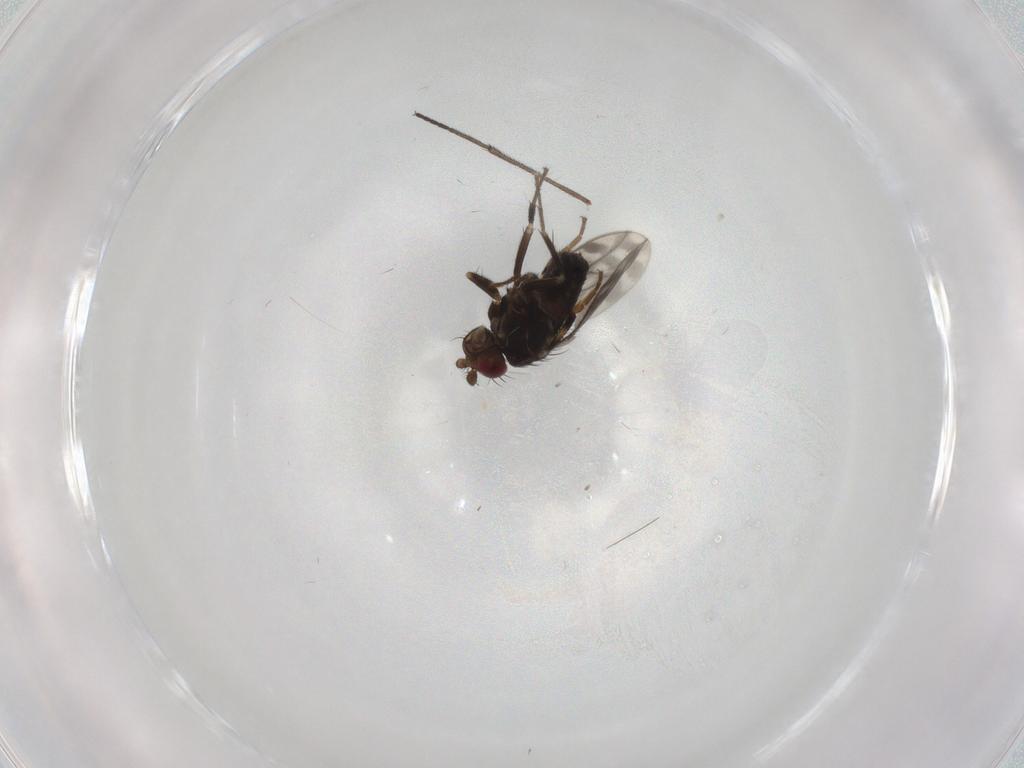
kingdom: Animalia
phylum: Arthropoda
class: Insecta
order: Diptera
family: Sphaeroceridae
